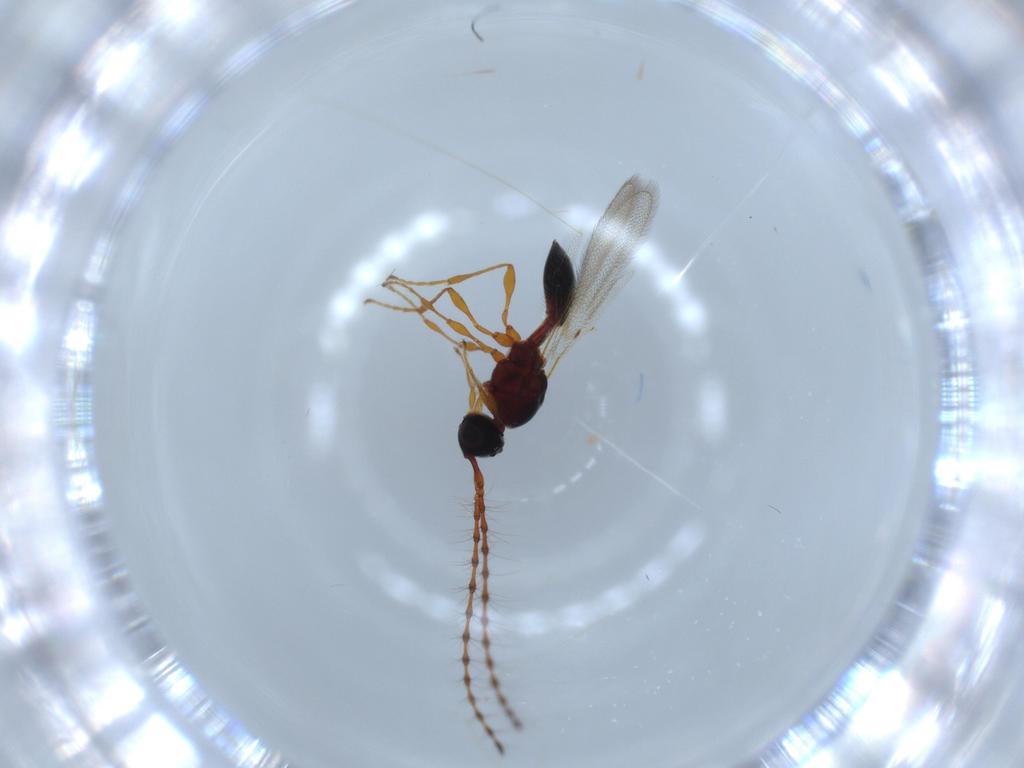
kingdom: Animalia
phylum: Arthropoda
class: Insecta
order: Hymenoptera
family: Diapriidae
